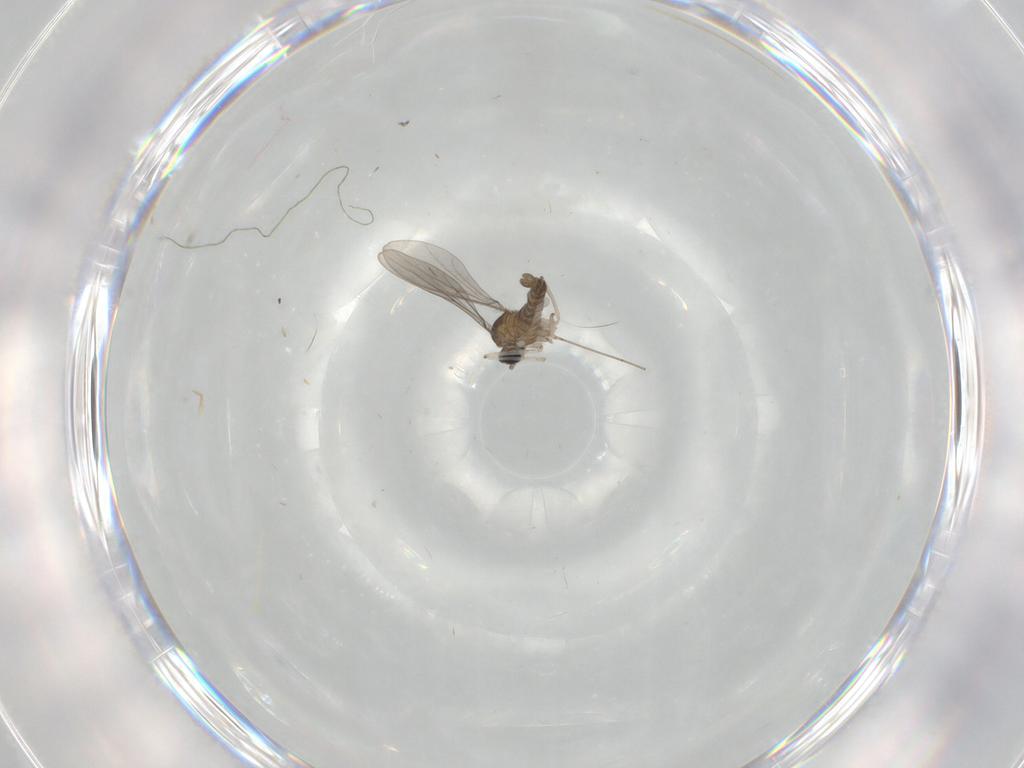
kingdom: Animalia
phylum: Arthropoda
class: Insecta
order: Diptera
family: Cecidomyiidae
